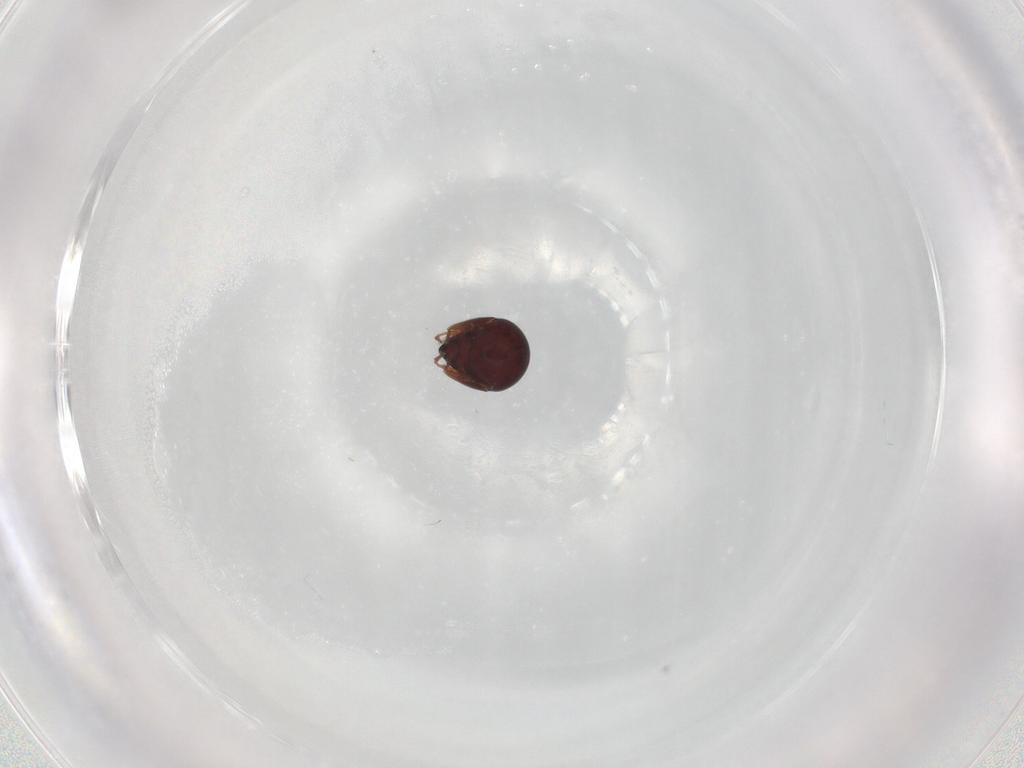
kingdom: Animalia
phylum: Arthropoda
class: Arachnida
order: Sarcoptiformes
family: Galumnidae
